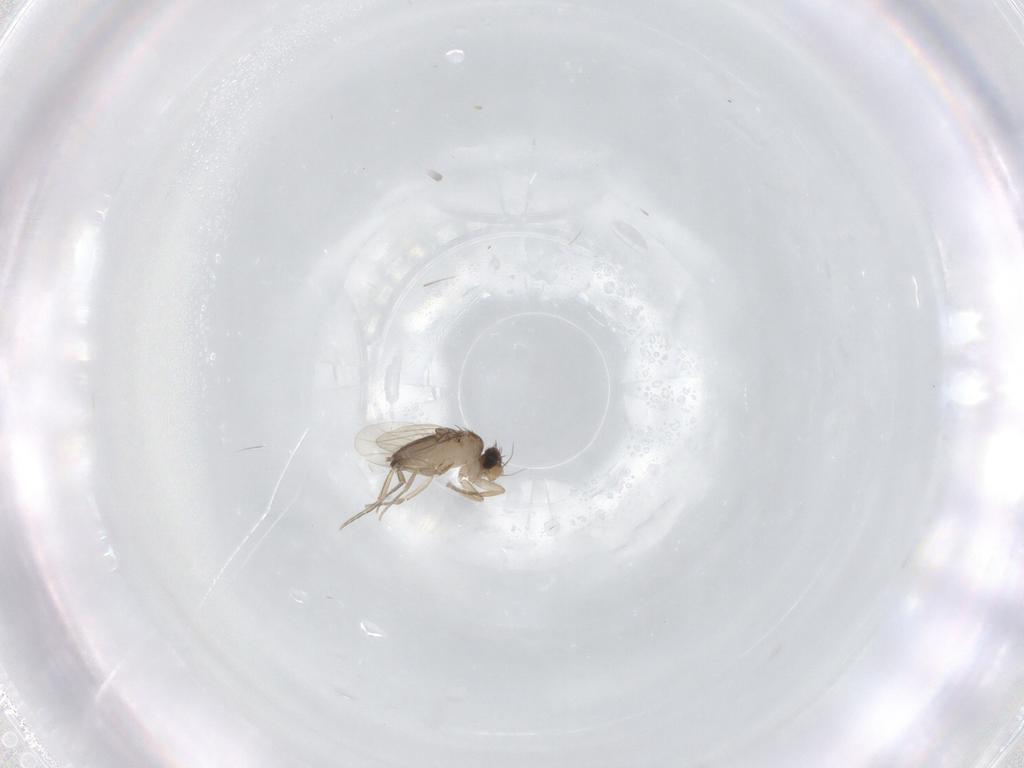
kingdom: Animalia
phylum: Arthropoda
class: Insecta
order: Diptera
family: Phoridae
